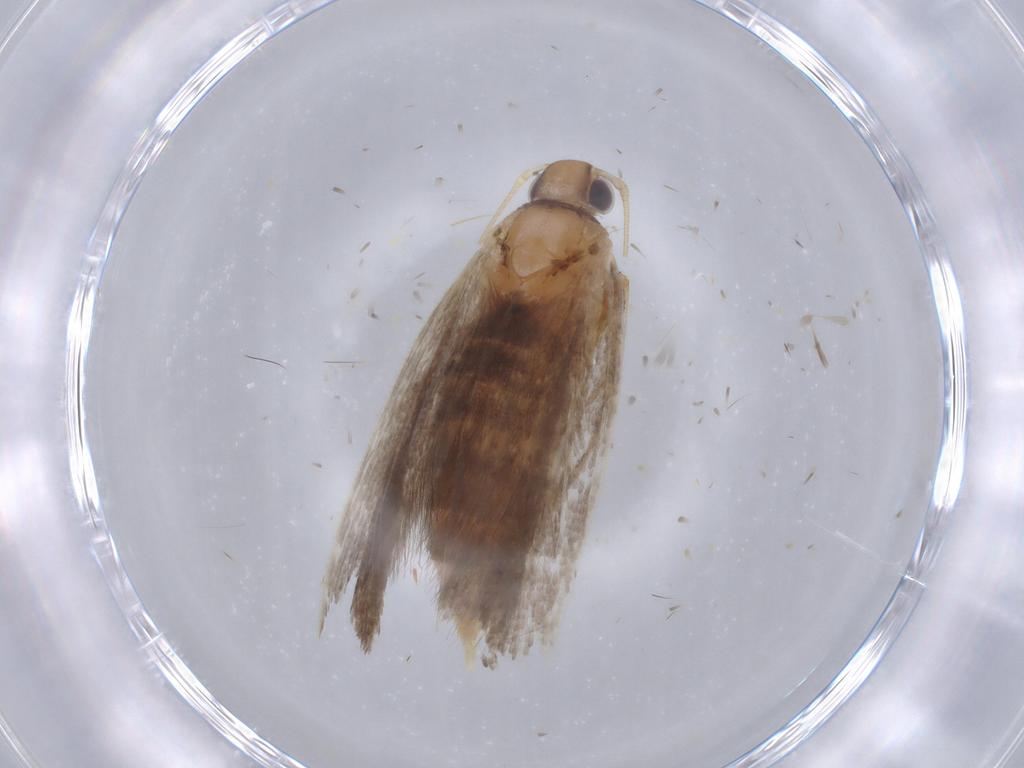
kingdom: Animalia
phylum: Arthropoda
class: Insecta
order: Lepidoptera
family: Gelechiidae
